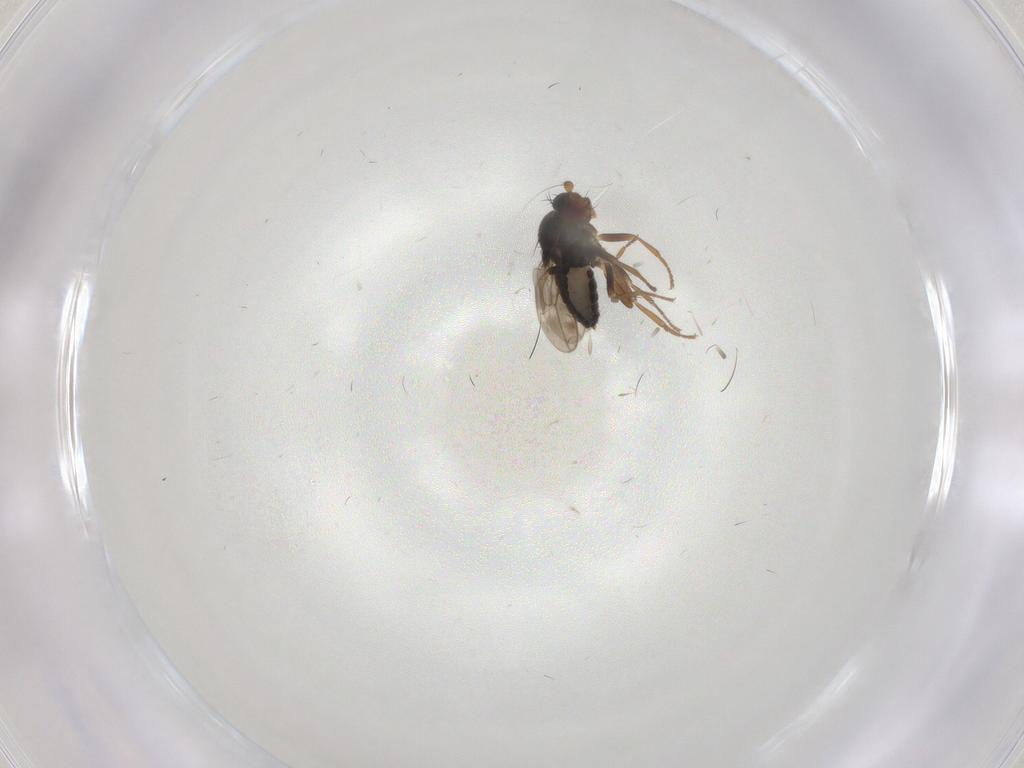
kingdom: Animalia
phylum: Arthropoda
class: Insecta
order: Diptera
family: Sphaeroceridae
